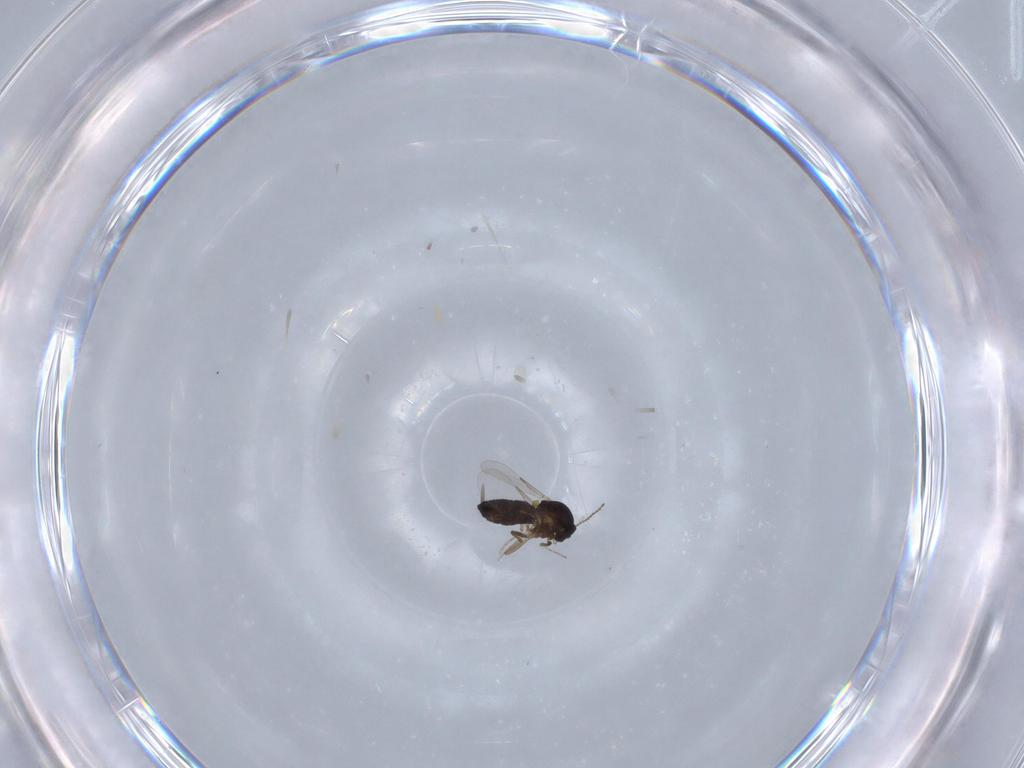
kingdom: Animalia
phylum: Arthropoda
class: Insecta
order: Diptera
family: Ceratopogonidae
